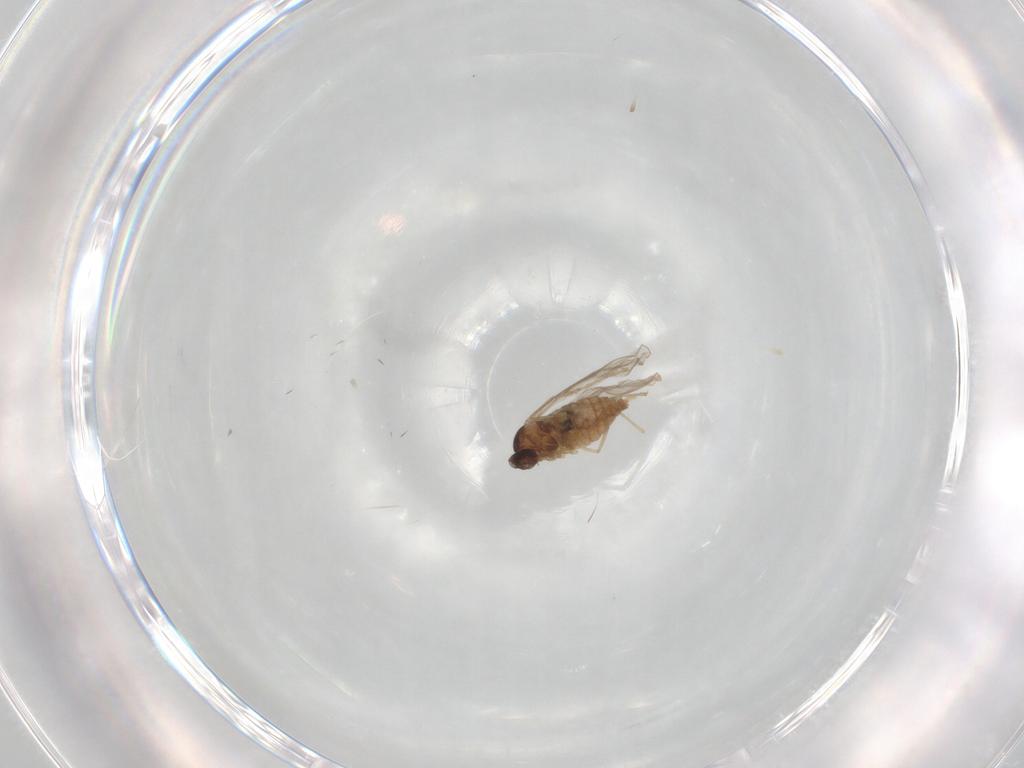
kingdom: Animalia
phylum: Arthropoda
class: Insecta
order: Diptera
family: Cecidomyiidae
